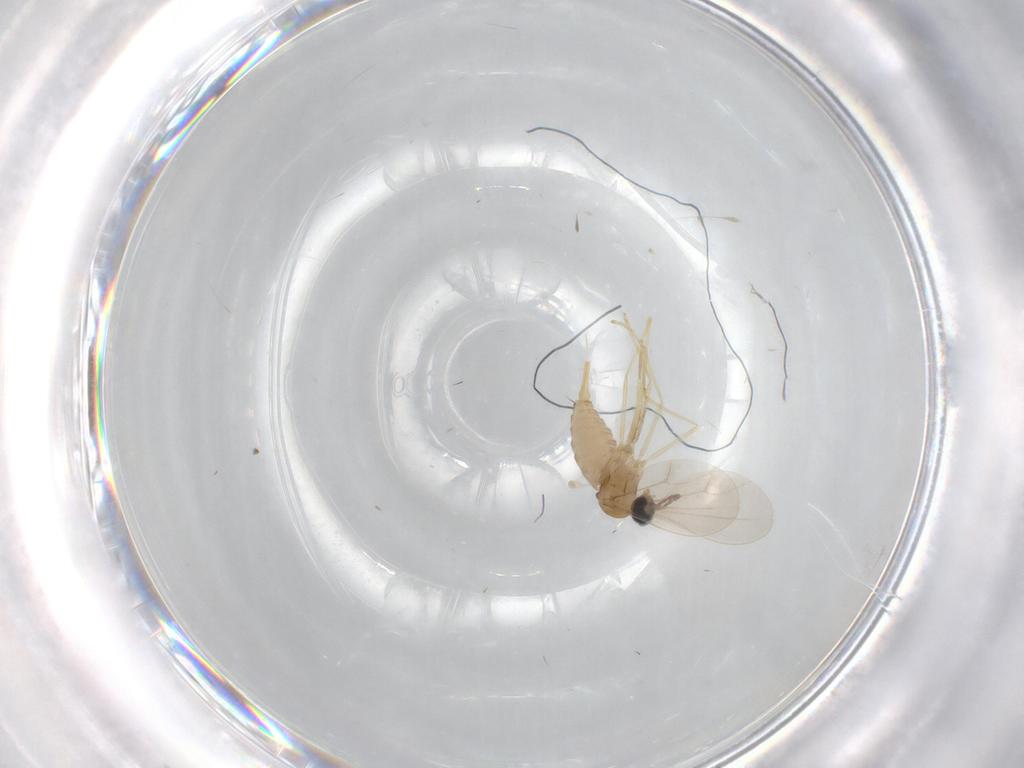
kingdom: Animalia
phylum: Arthropoda
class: Insecta
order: Diptera
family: Cecidomyiidae
